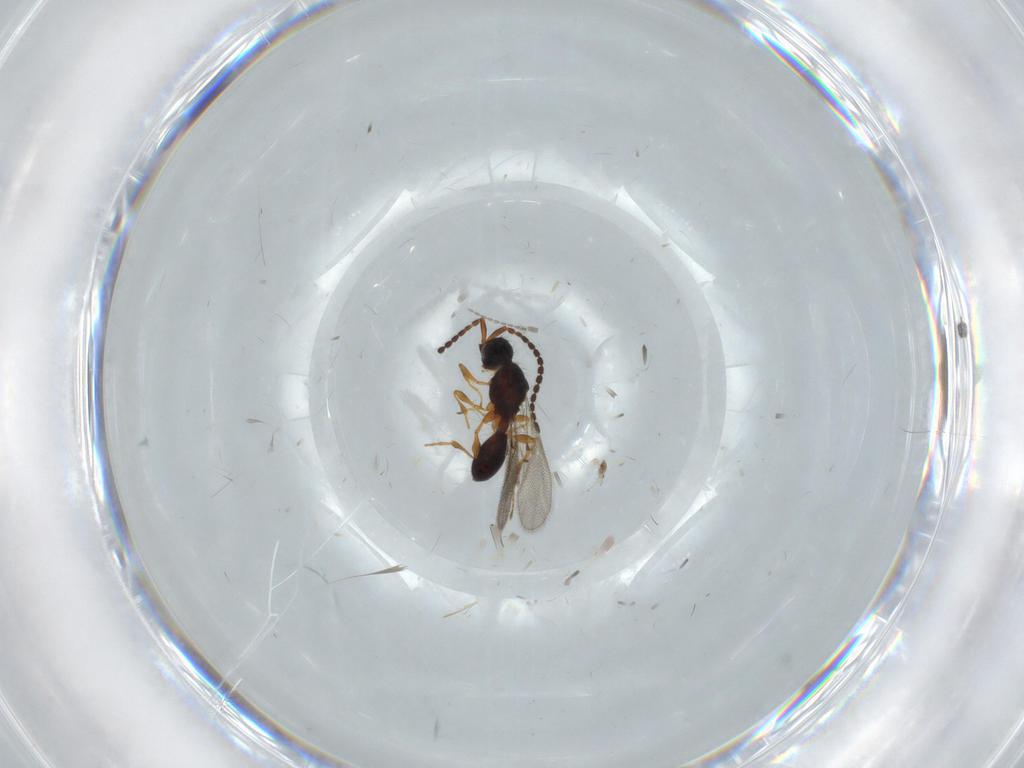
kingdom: Animalia
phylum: Arthropoda
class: Insecta
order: Hymenoptera
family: Diapriidae
